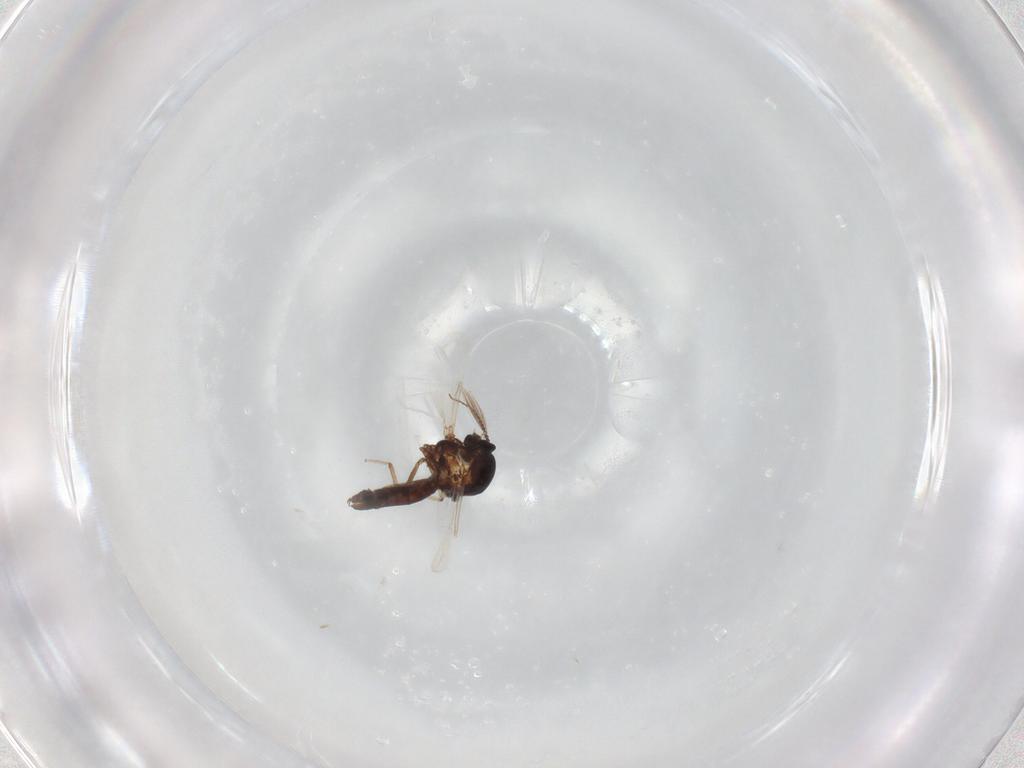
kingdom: Animalia
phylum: Arthropoda
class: Insecta
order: Diptera
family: Ceratopogonidae
